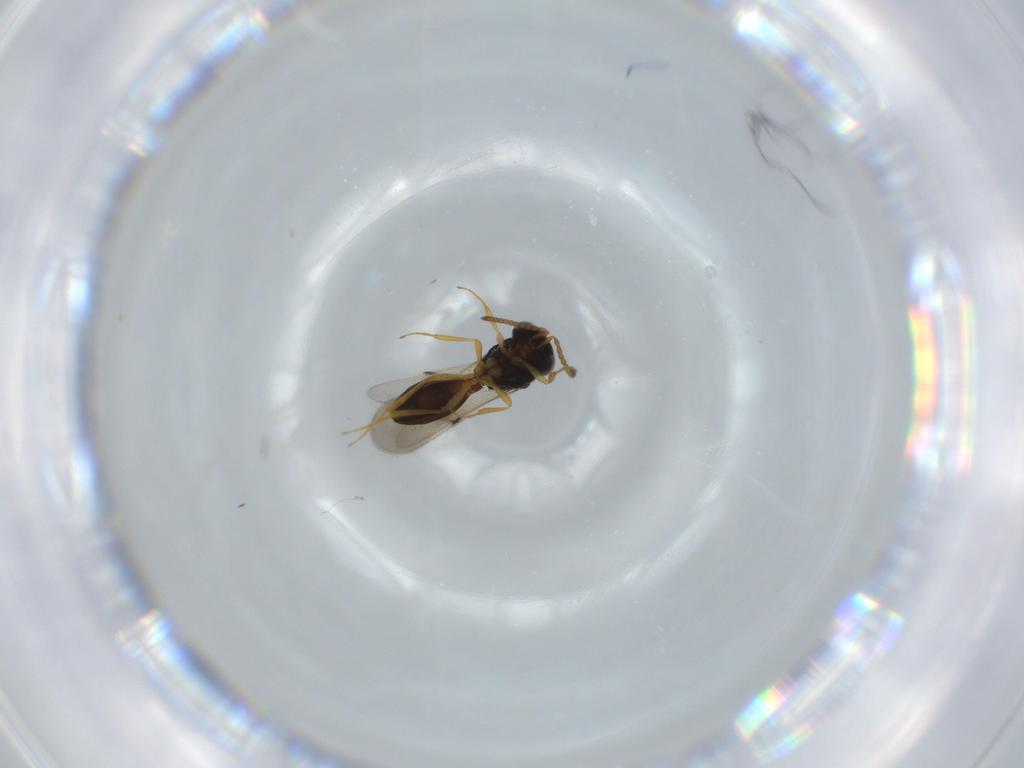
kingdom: Animalia
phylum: Arthropoda
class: Insecta
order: Hymenoptera
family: Scelionidae
